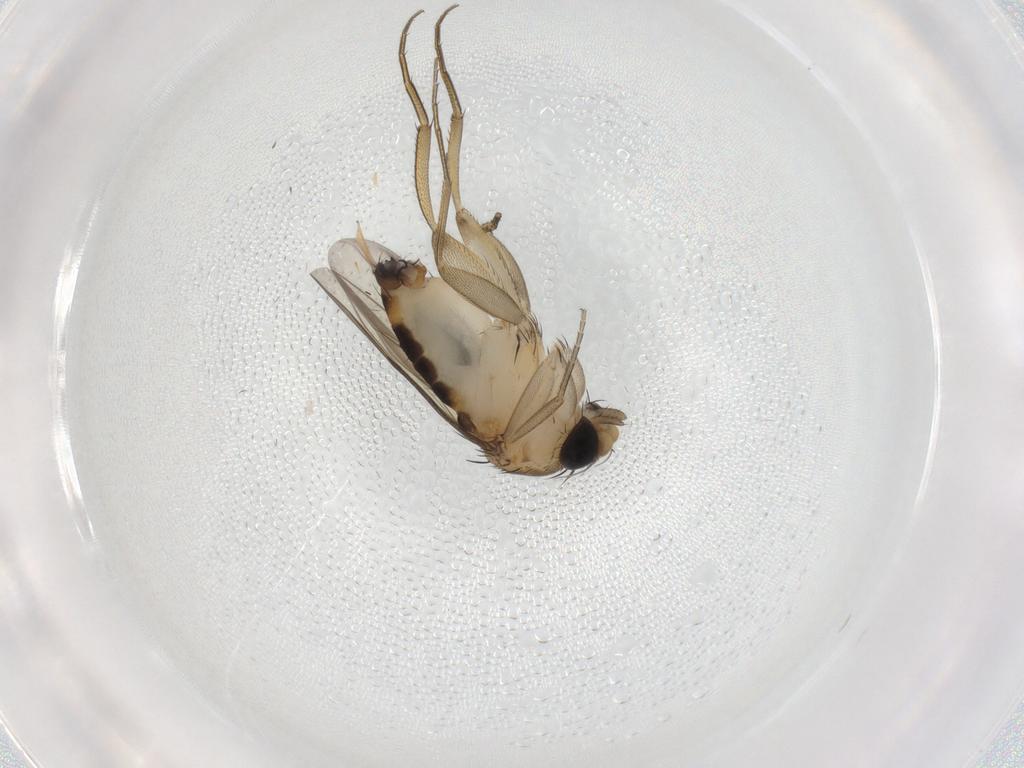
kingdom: Animalia
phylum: Arthropoda
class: Insecta
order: Diptera
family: Phoridae
